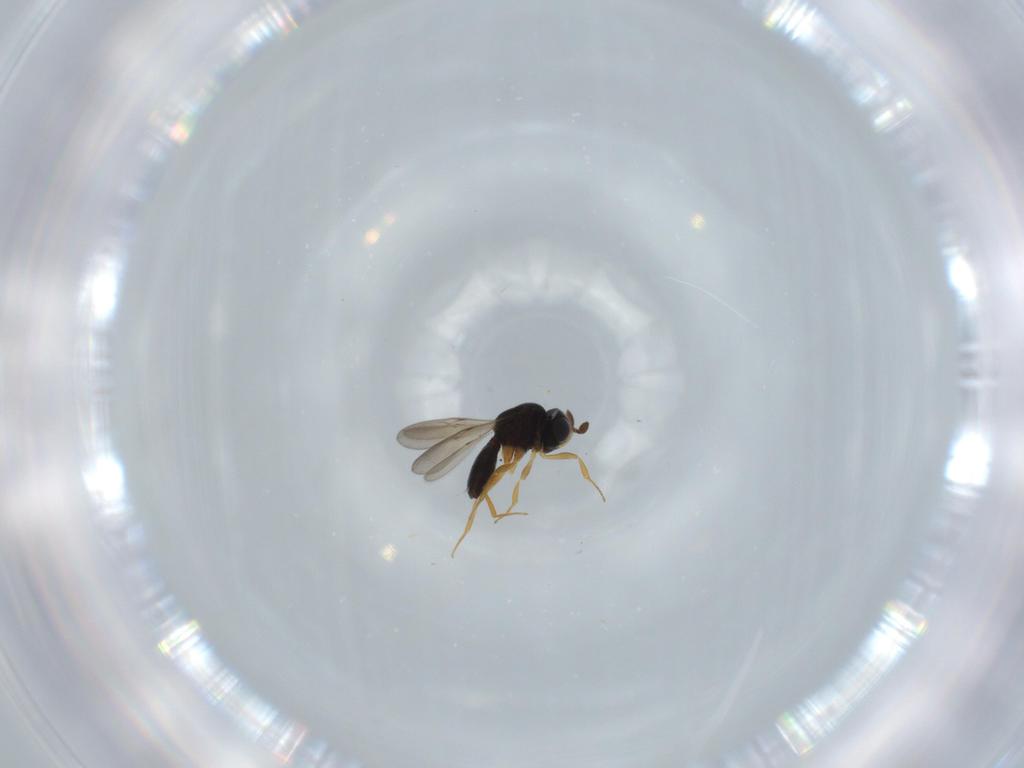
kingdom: Animalia
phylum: Arthropoda
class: Insecta
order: Hymenoptera
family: Scelionidae
